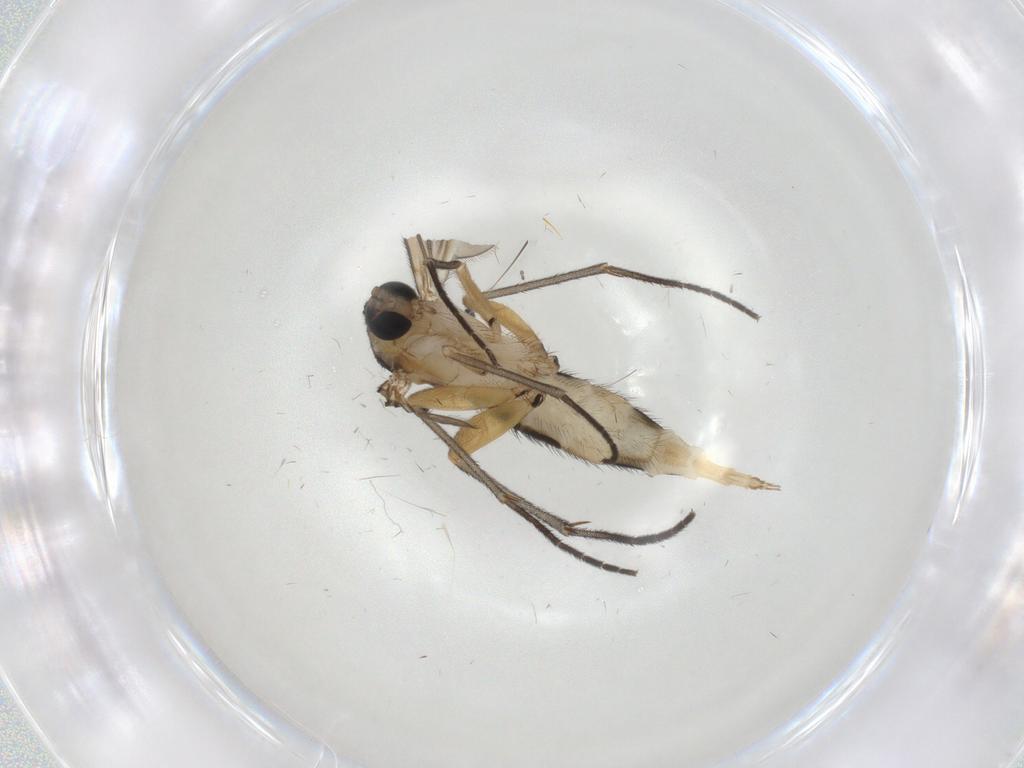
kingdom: Animalia
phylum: Arthropoda
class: Insecta
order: Diptera
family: Sciaridae
